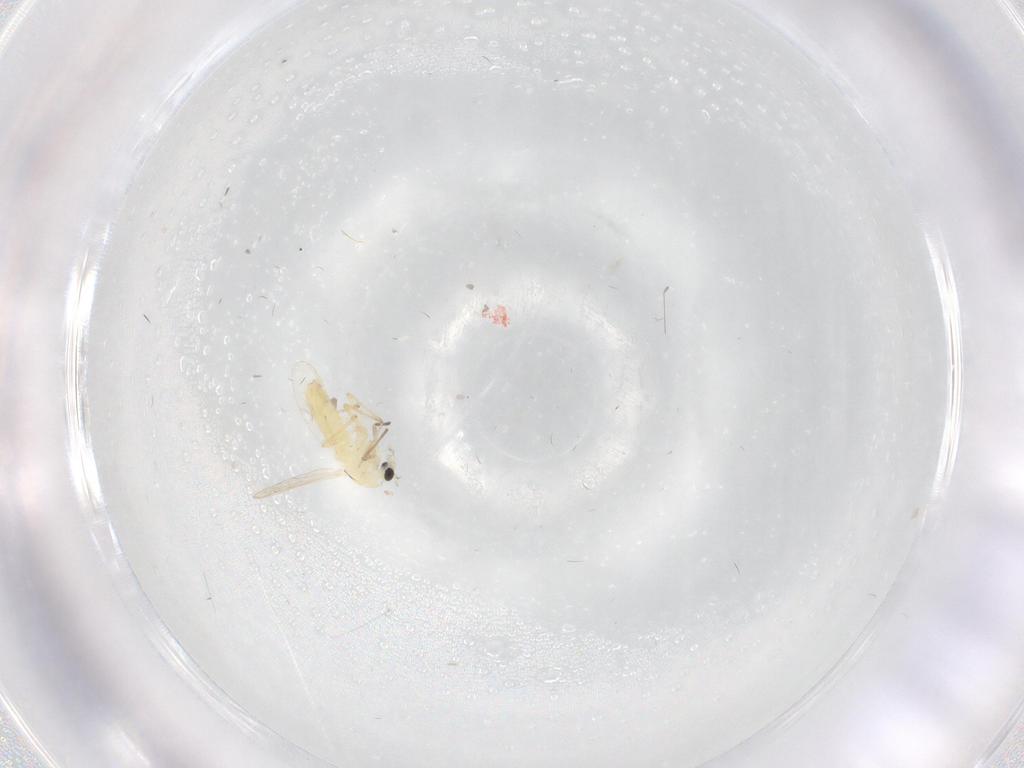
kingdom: Animalia
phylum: Arthropoda
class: Insecta
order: Diptera
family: Chironomidae
